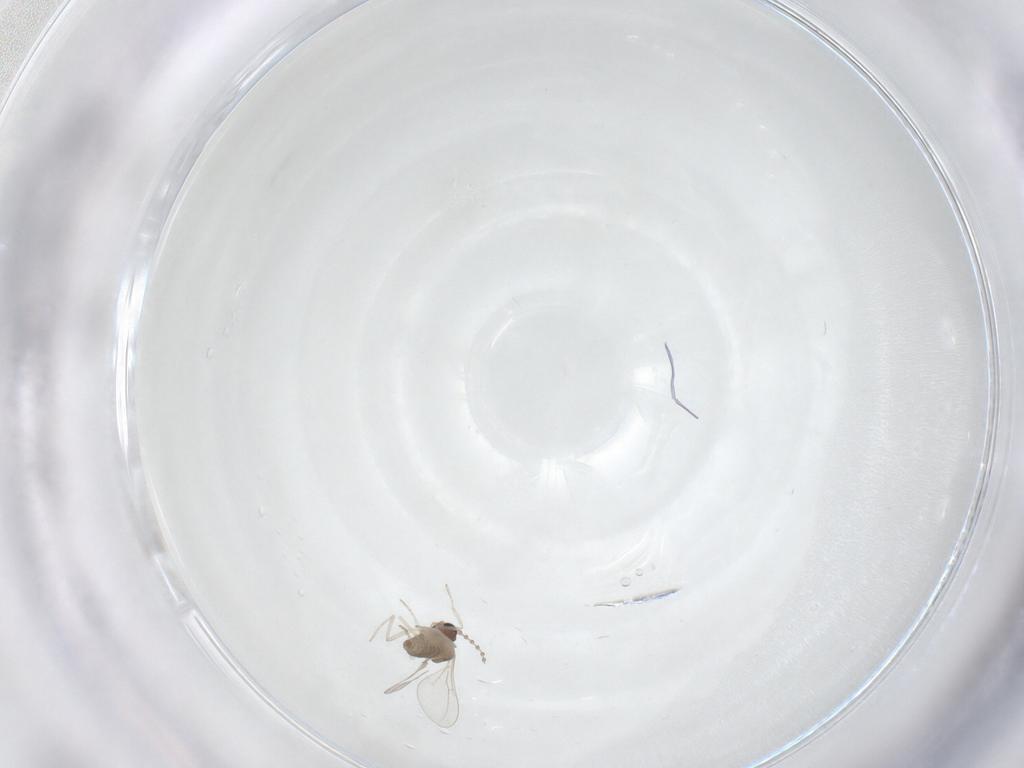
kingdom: Animalia
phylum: Arthropoda
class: Insecta
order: Diptera
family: Cecidomyiidae
